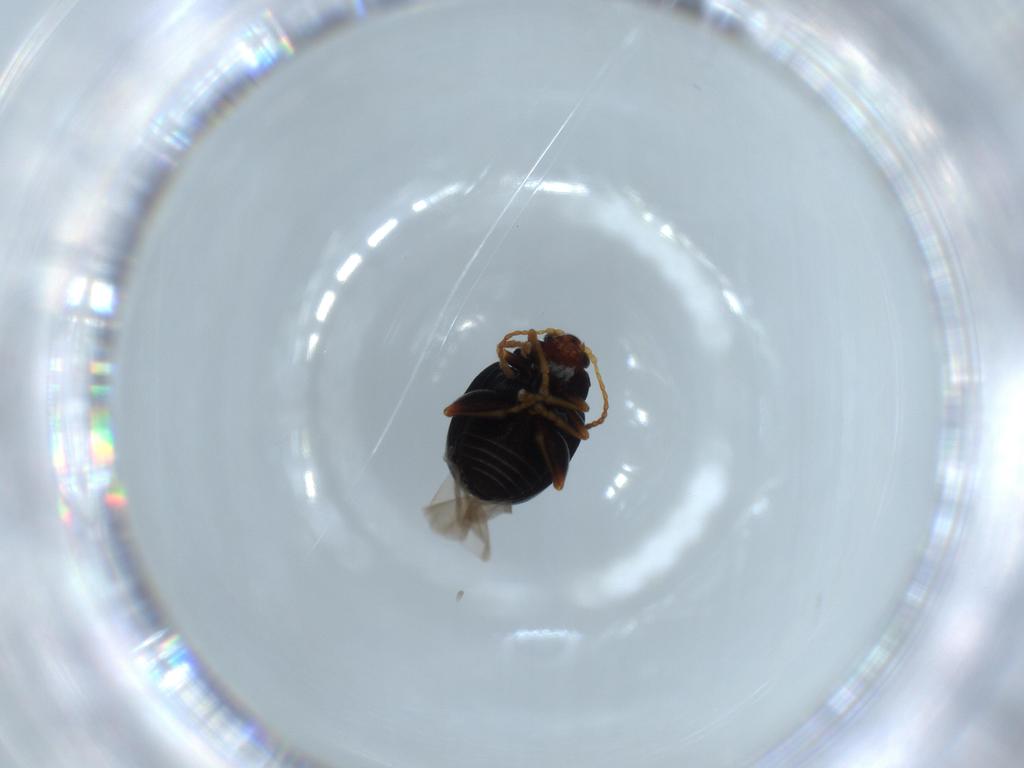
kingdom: Animalia
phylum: Arthropoda
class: Insecta
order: Coleoptera
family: Chrysomelidae
